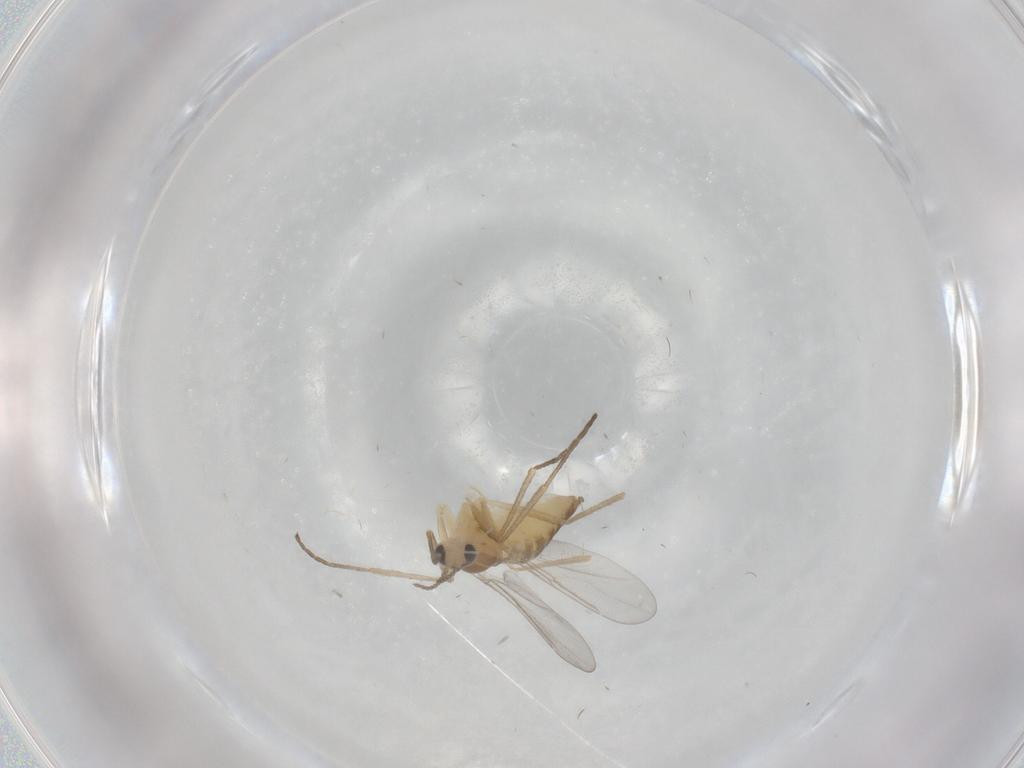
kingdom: Animalia
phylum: Arthropoda
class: Insecta
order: Diptera
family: Cecidomyiidae
